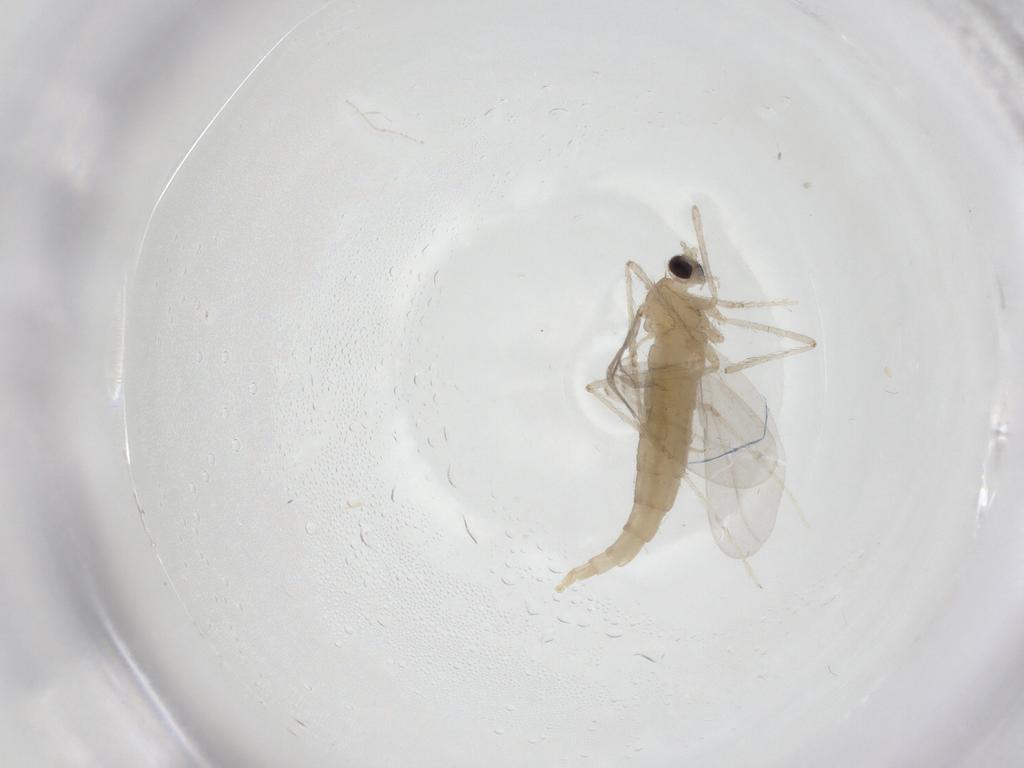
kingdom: Animalia
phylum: Arthropoda
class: Insecta
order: Diptera
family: Cecidomyiidae
